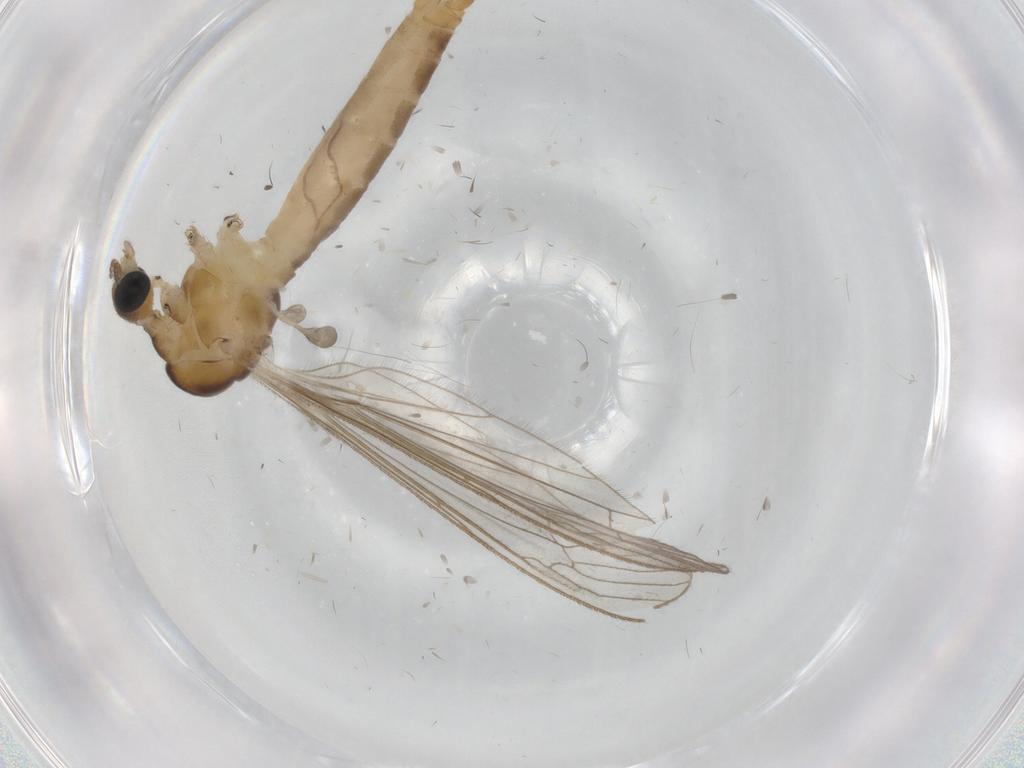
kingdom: Animalia
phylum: Arthropoda
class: Insecta
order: Diptera
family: Limoniidae
